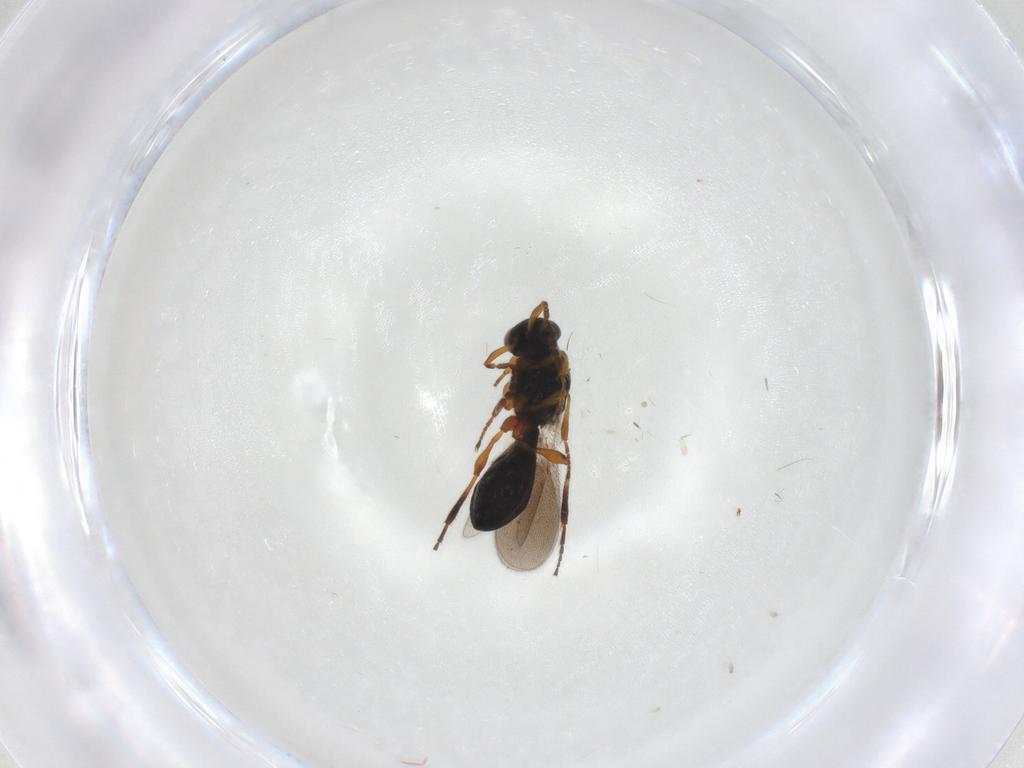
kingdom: Animalia
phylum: Arthropoda
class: Insecta
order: Hymenoptera
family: Platygastridae
